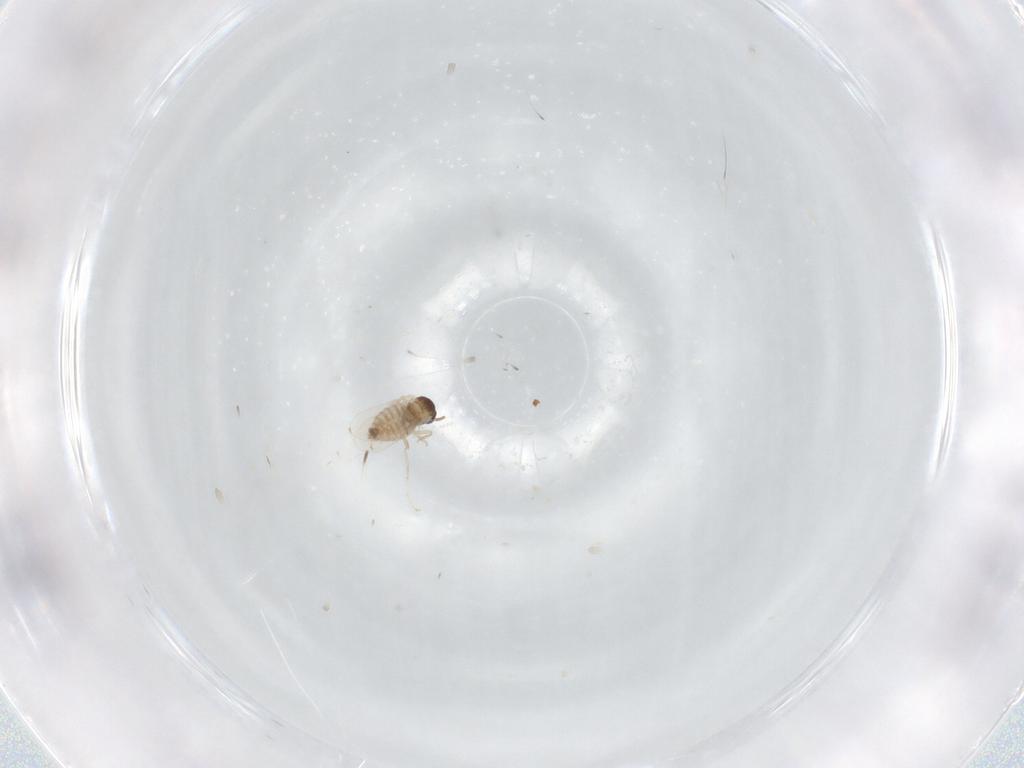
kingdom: Animalia
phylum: Arthropoda
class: Insecta
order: Diptera
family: Cecidomyiidae
